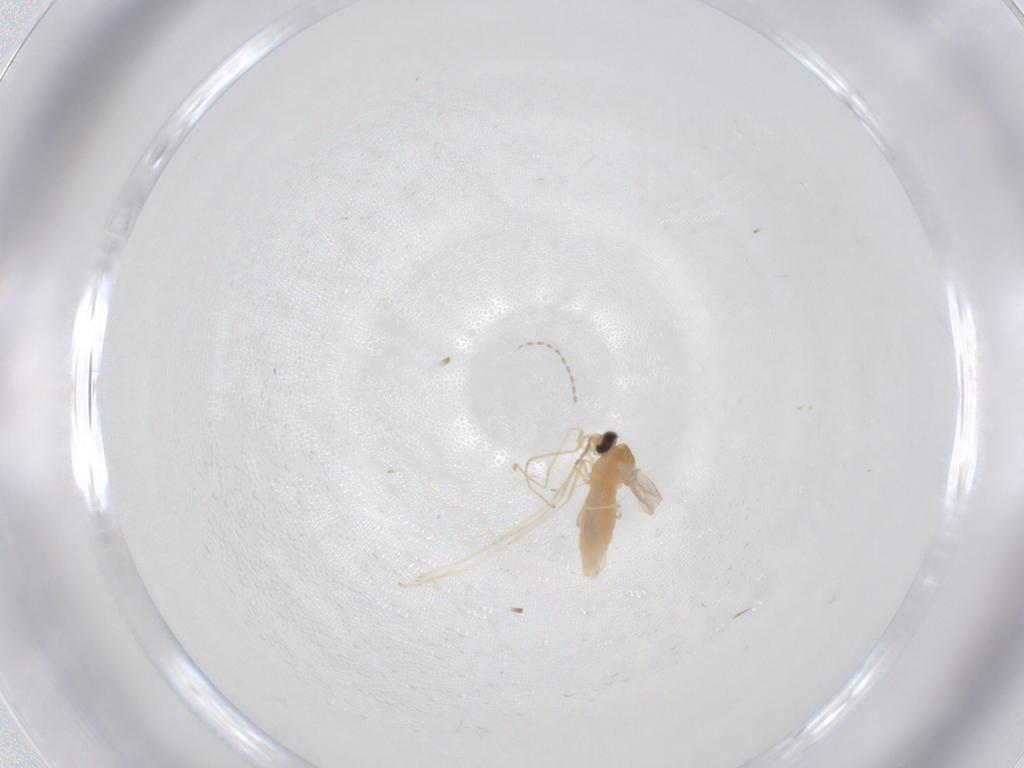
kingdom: Animalia
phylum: Arthropoda
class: Insecta
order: Diptera
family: Cecidomyiidae
